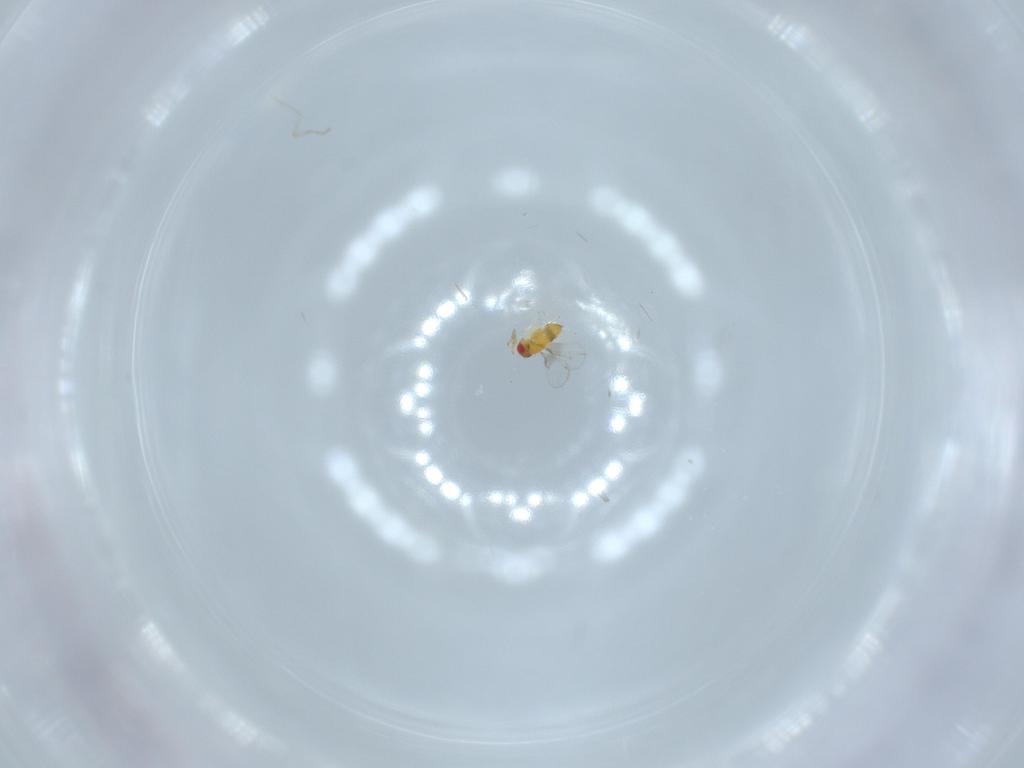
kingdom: Animalia
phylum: Arthropoda
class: Insecta
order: Hymenoptera
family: Trichogrammatidae
